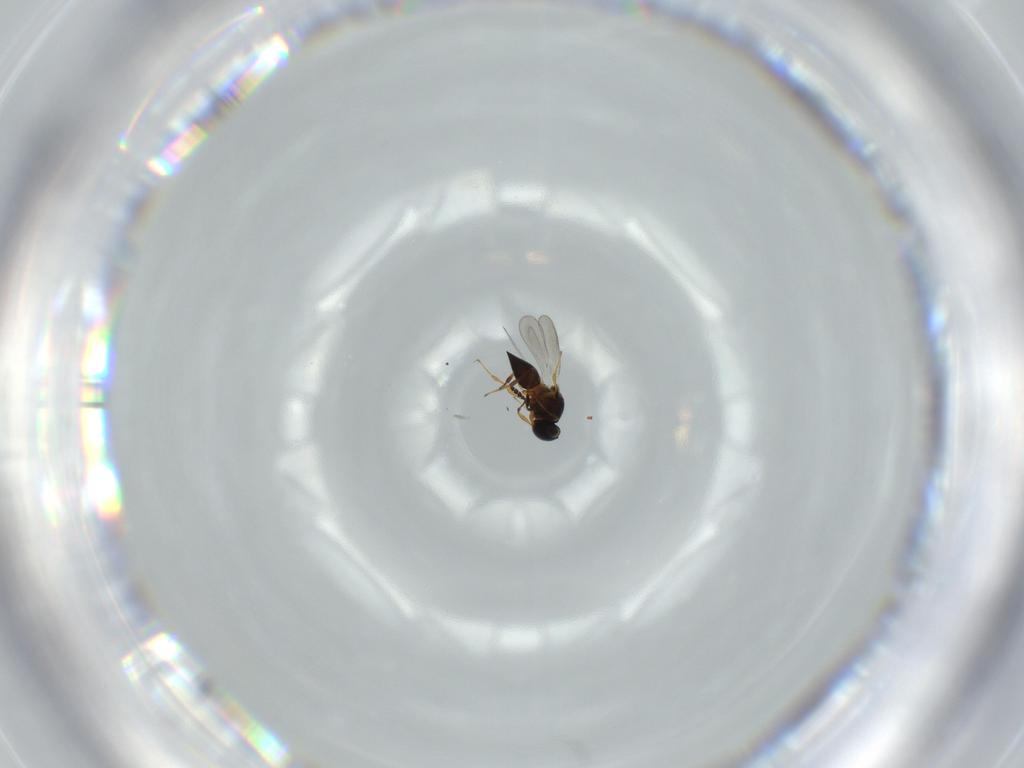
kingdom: Animalia
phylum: Arthropoda
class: Insecta
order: Hymenoptera
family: Platygastridae
